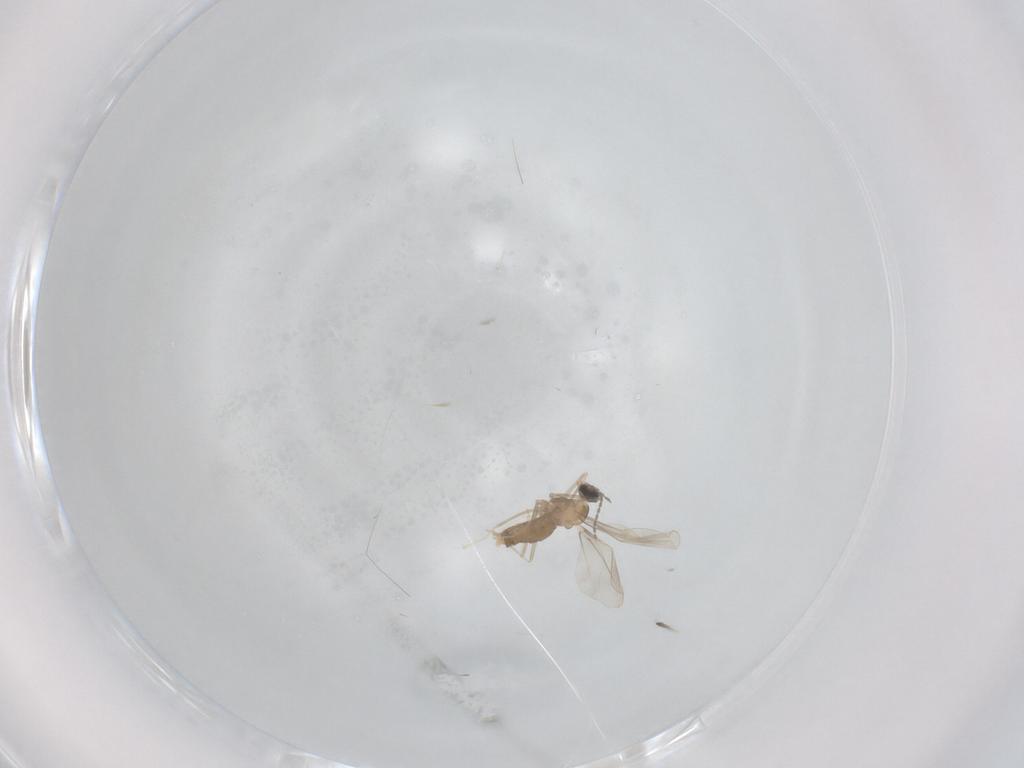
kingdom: Animalia
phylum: Arthropoda
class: Insecta
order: Diptera
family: Cecidomyiidae
